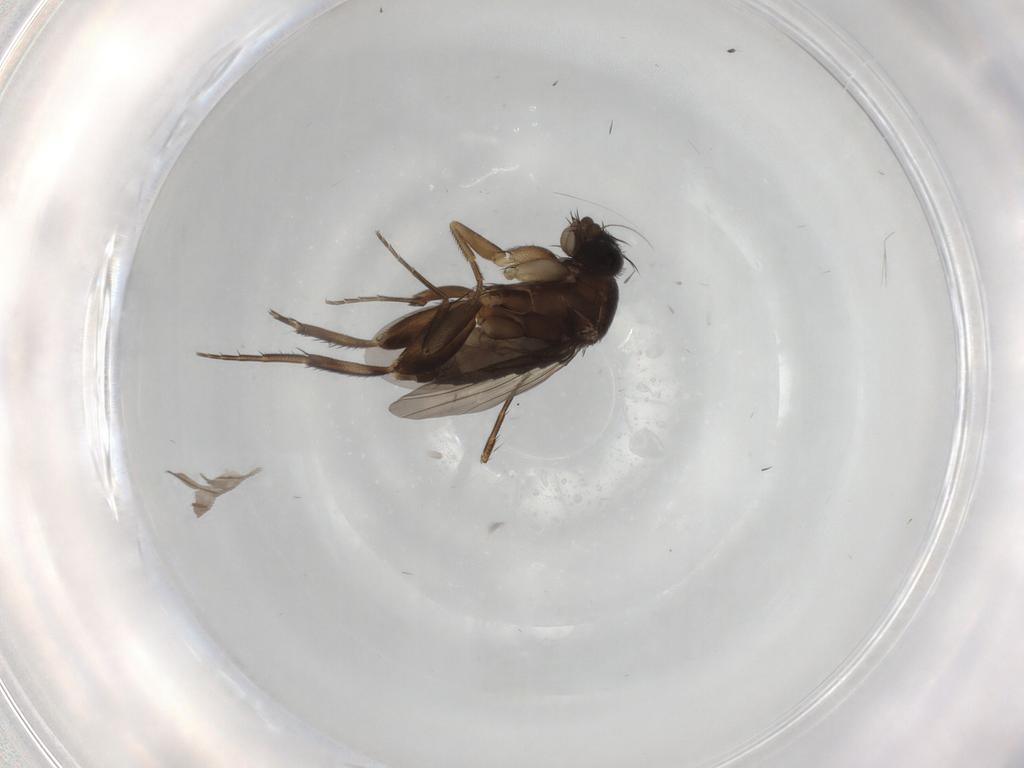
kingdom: Animalia
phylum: Arthropoda
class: Insecta
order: Diptera
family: Phoridae
